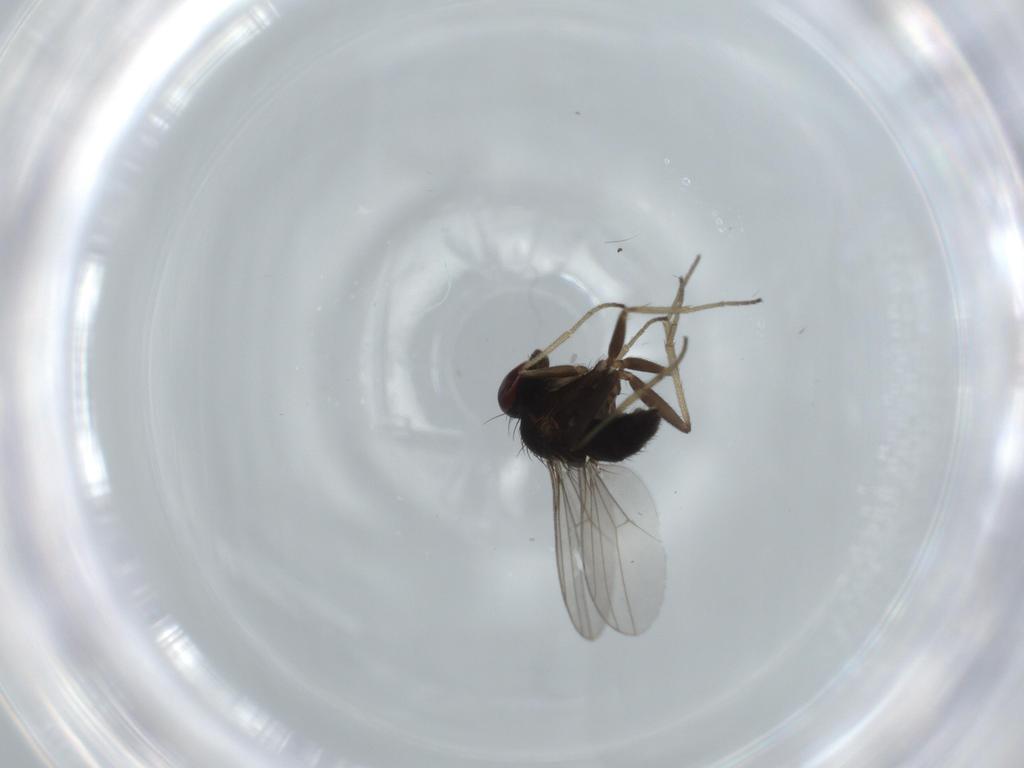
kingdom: Animalia
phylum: Arthropoda
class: Insecta
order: Diptera
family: Dolichopodidae
